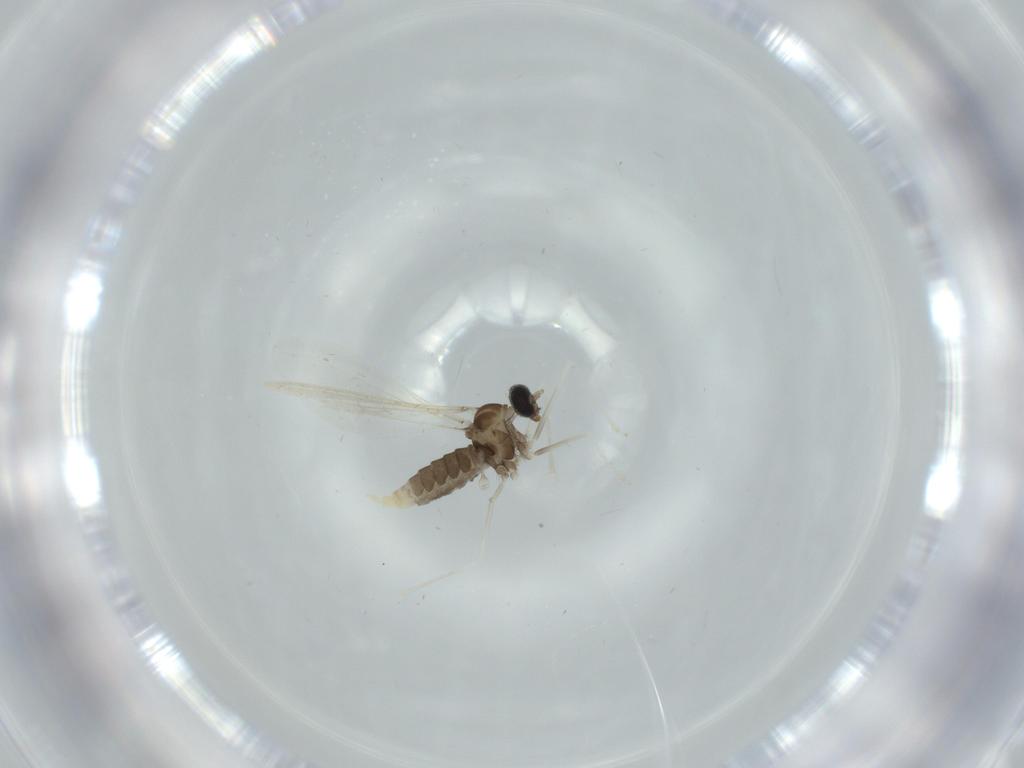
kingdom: Animalia
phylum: Arthropoda
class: Insecta
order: Diptera
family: Cecidomyiidae
